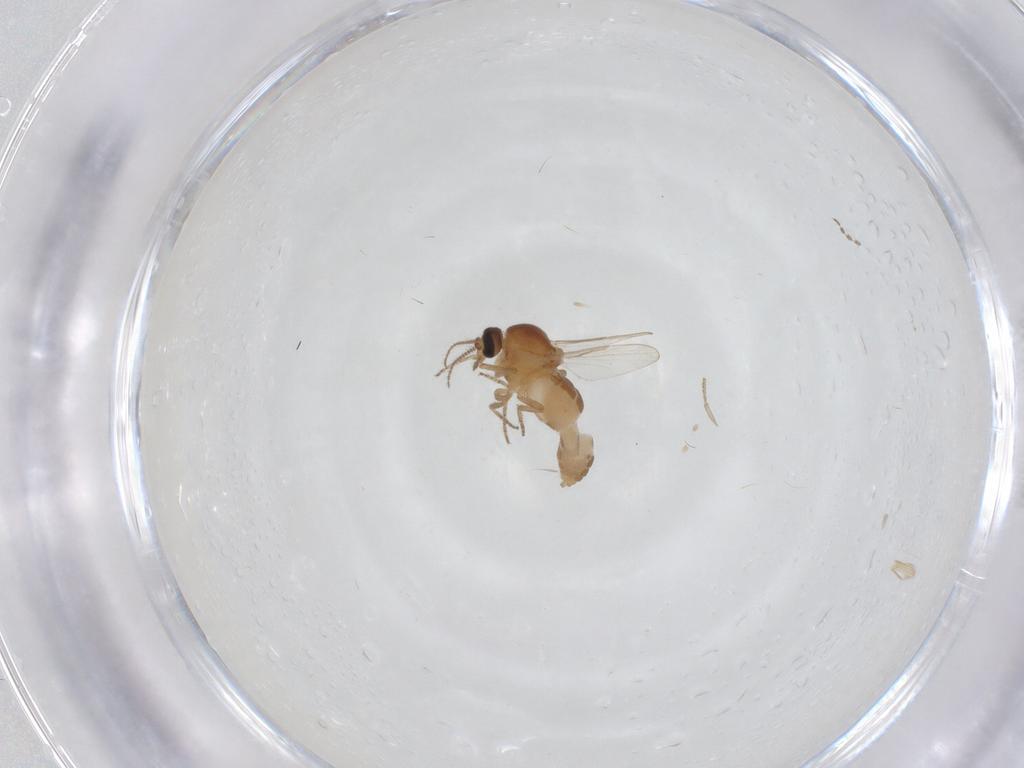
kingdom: Animalia
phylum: Arthropoda
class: Insecta
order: Diptera
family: Ceratopogonidae
